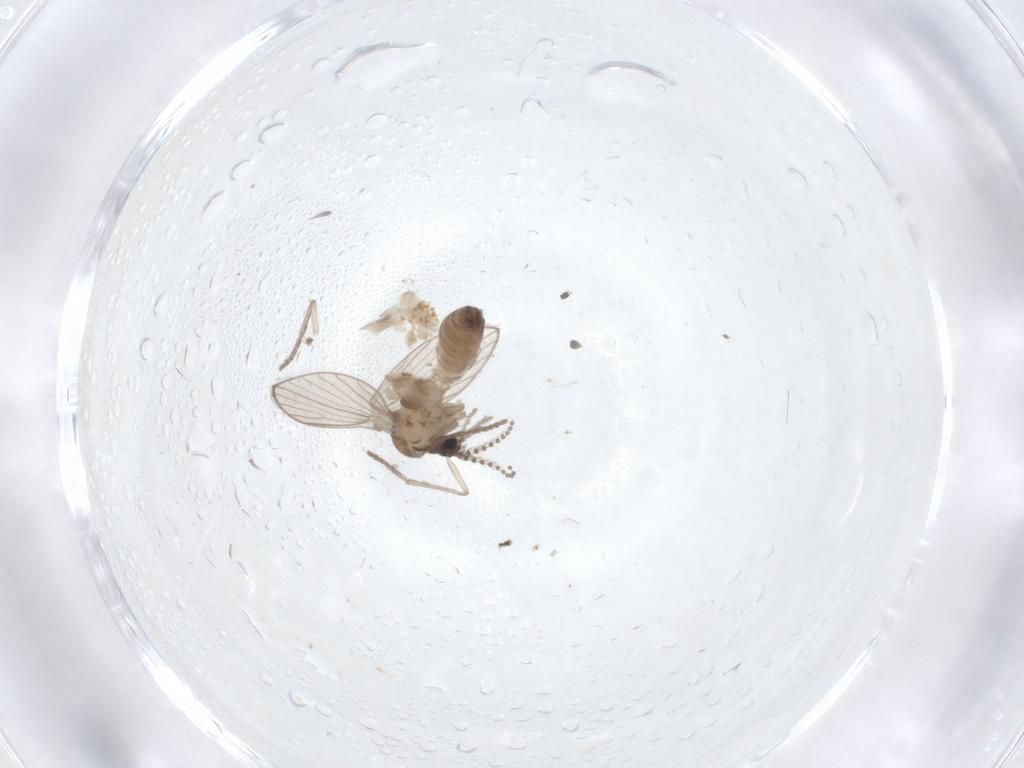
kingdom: Animalia
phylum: Arthropoda
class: Insecta
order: Diptera
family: Psychodidae
